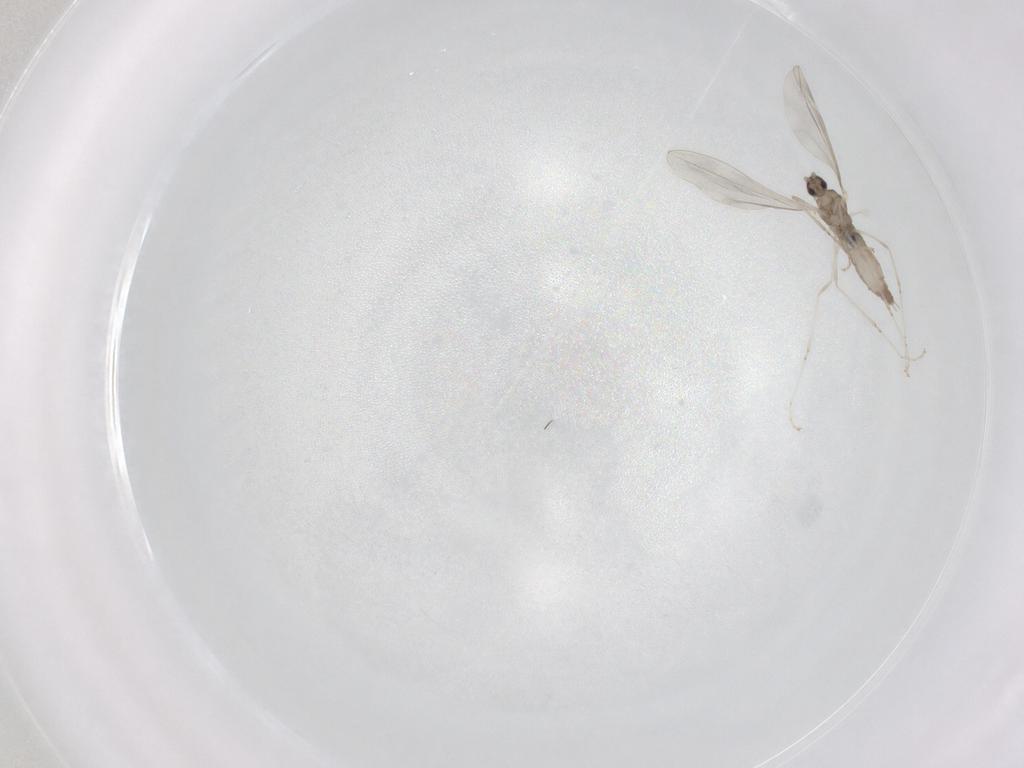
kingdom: Animalia
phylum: Arthropoda
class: Insecta
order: Diptera
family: Cecidomyiidae
